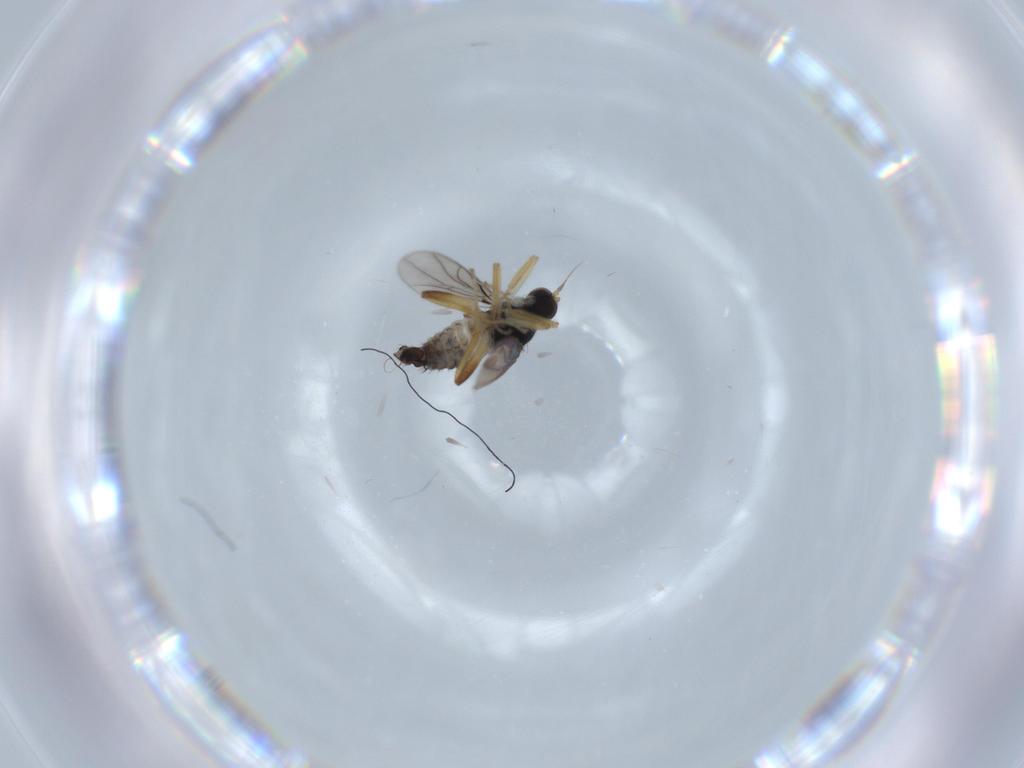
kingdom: Animalia
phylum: Arthropoda
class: Insecta
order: Diptera
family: Hybotidae
